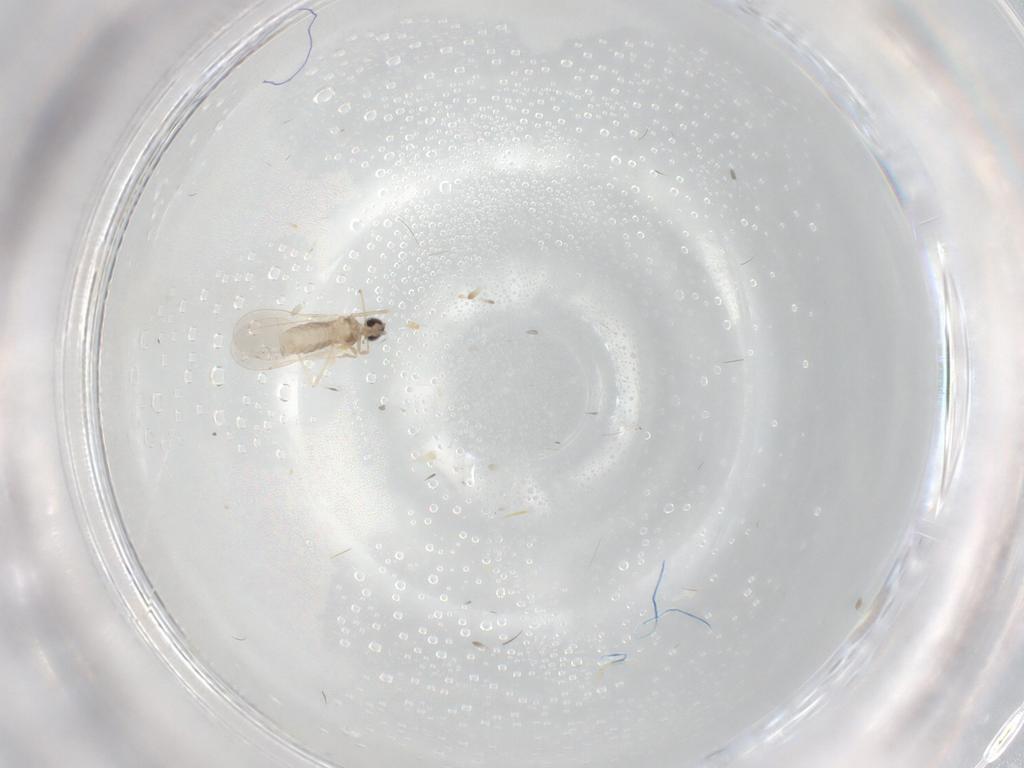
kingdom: Animalia
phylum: Arthropoda
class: Insecta
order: Diptera
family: Cecidomyiidae
